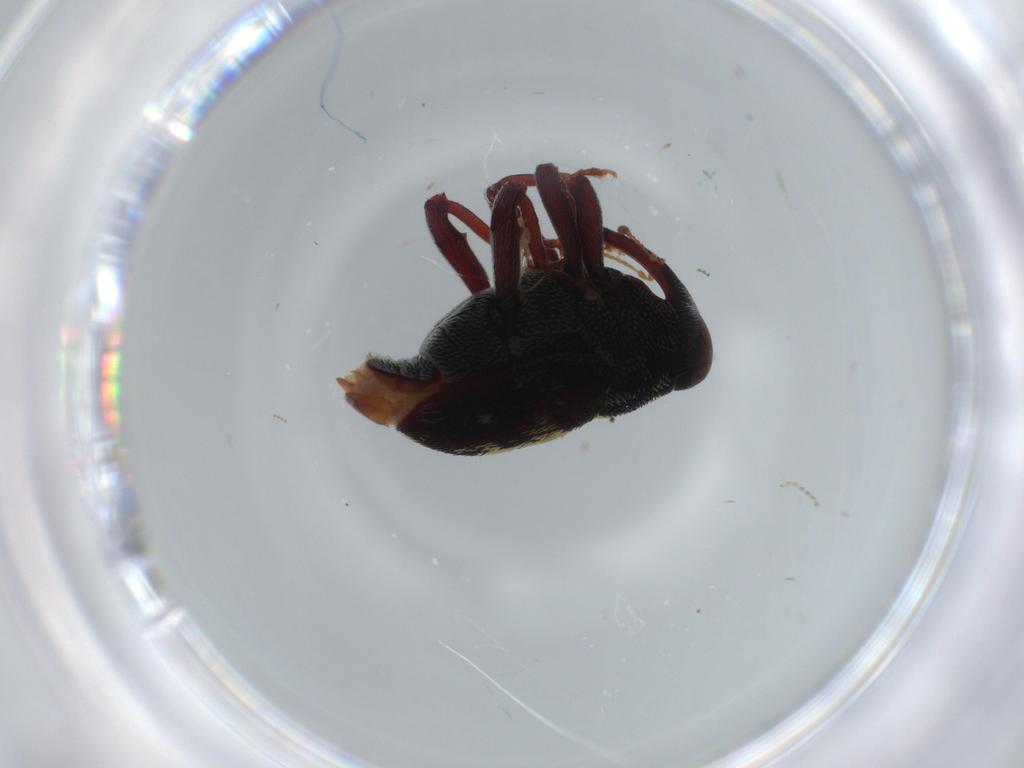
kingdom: Animalia
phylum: Arthropoda
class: Insecta
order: Coleoptera
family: Curculionidae
